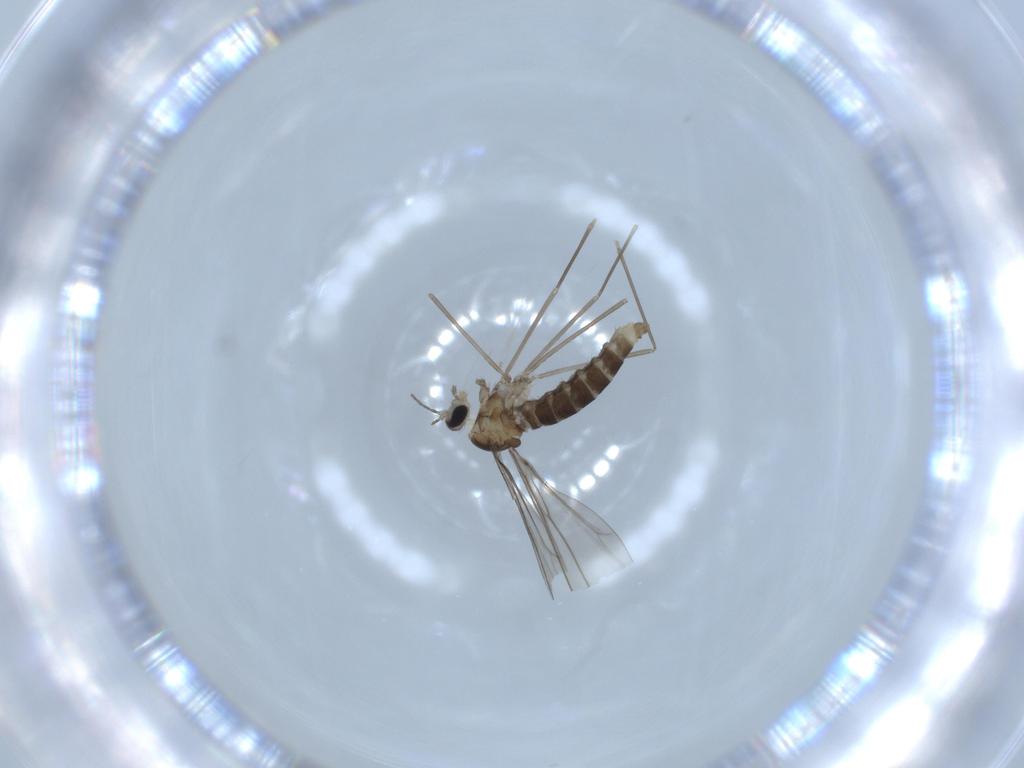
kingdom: Animalia
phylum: Arthropoda
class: Insecta
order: Diptera
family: Cecidomyiidae
